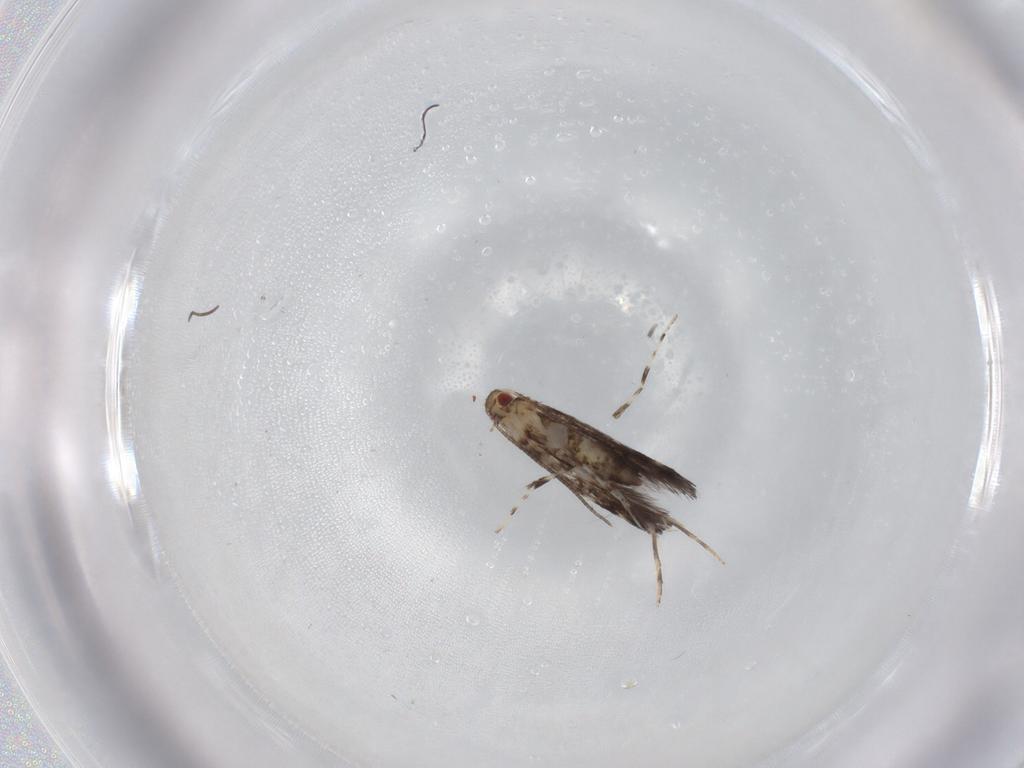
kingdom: Animalia
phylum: Arthropoda
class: Insecta
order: Lepidoptera
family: Gracillariidae
